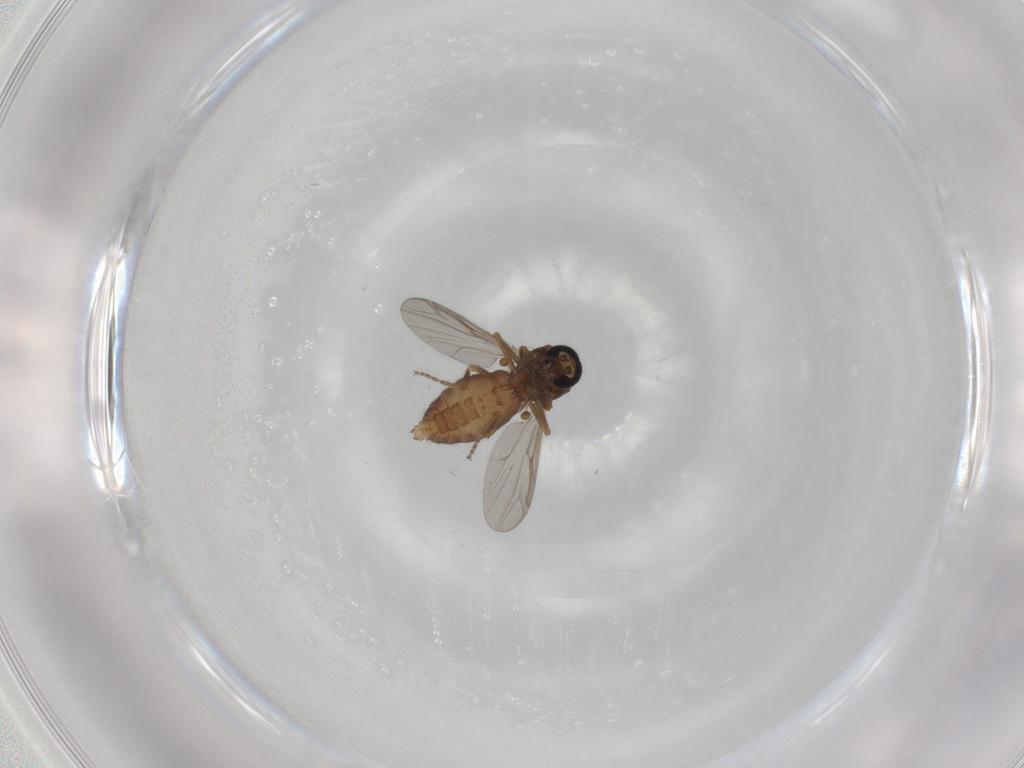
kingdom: Animalia
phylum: Arthropoda
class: Insecta
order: Diptera
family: Ceratopogonidae
